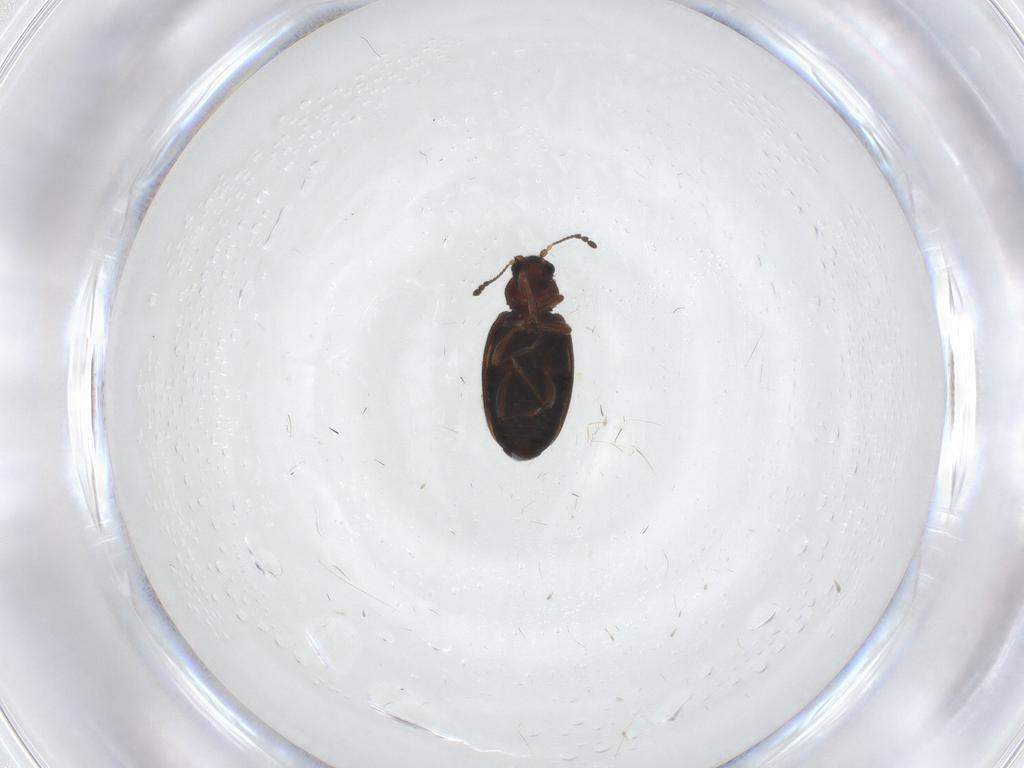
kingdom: Animalia
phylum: Arthropoda
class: Insecta
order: Coleoptera
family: Latridiidae
